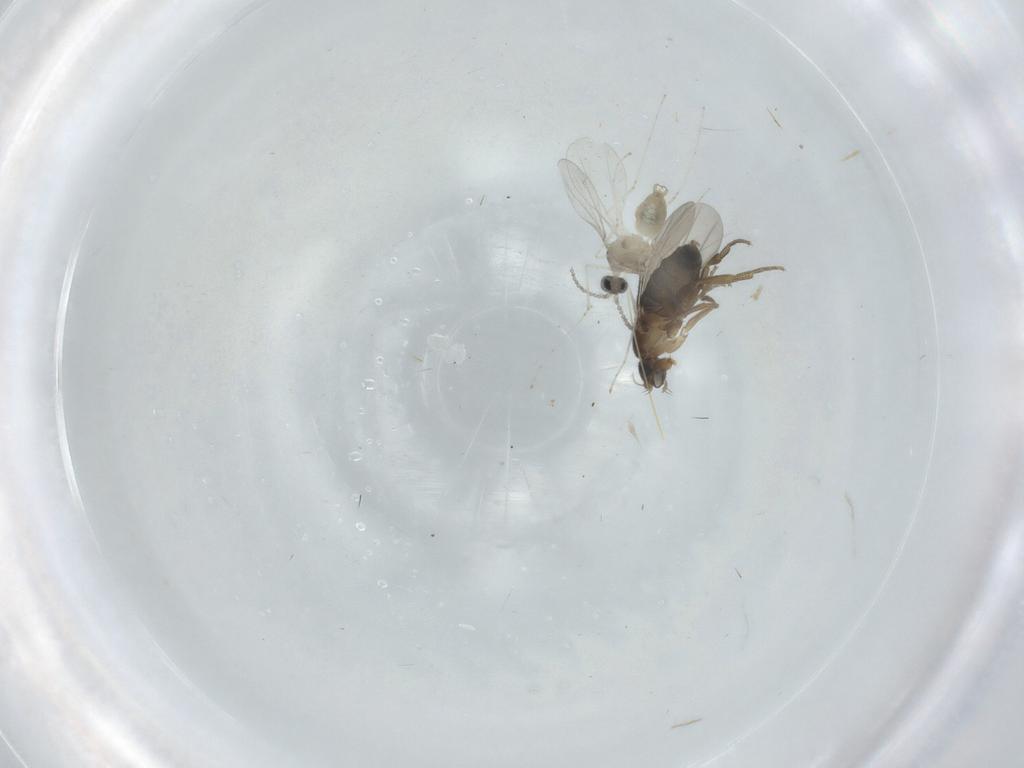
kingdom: Animalia
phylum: Arthropoda
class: Insecta
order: Diptera
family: Cecidomyiidae
